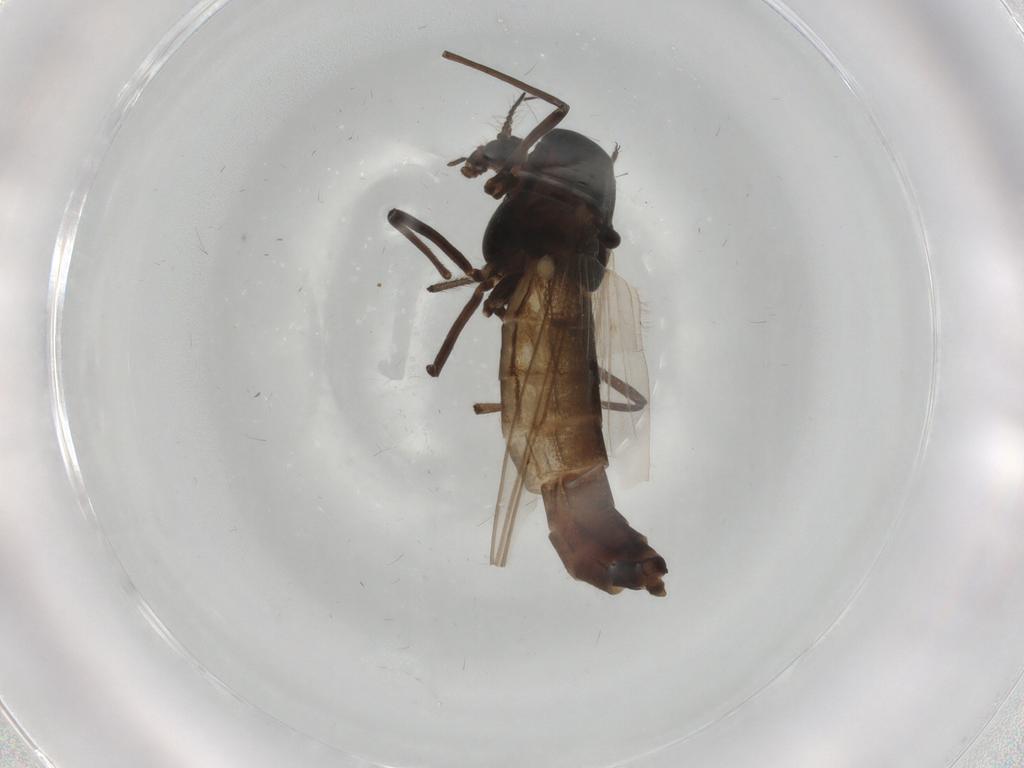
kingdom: Animalia
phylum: Arthropoda
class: Insecta
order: Diptera
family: Chironomidae
